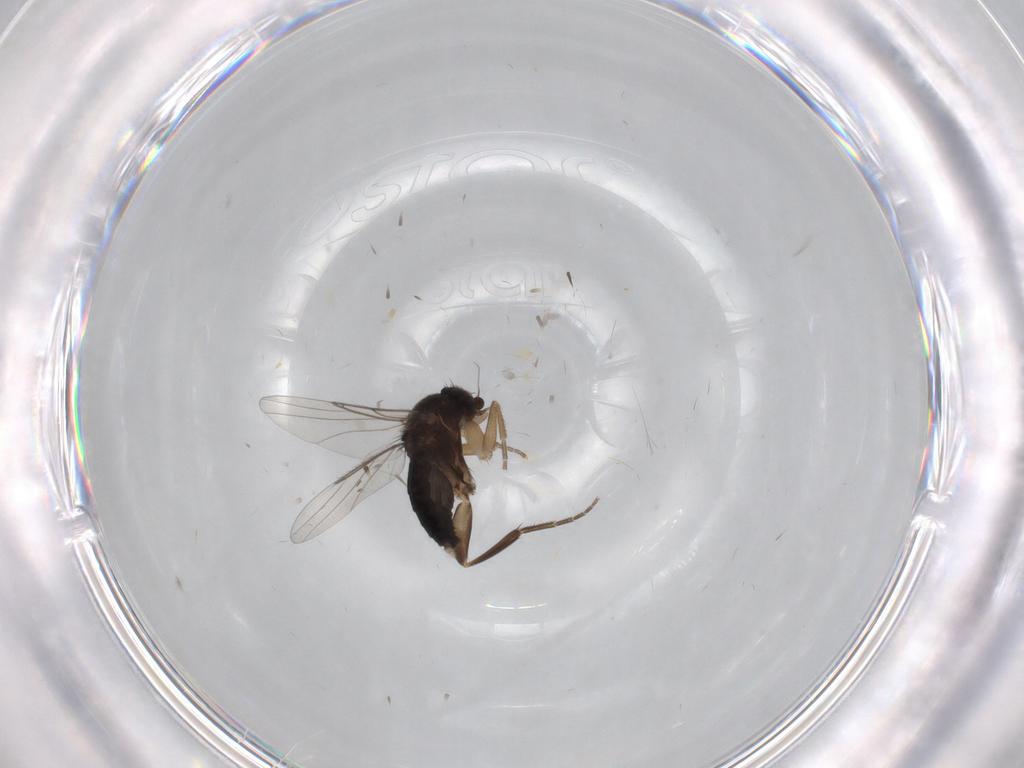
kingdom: Animalia
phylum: Arthropoda
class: Insecta
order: Diptera
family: Phoridae
